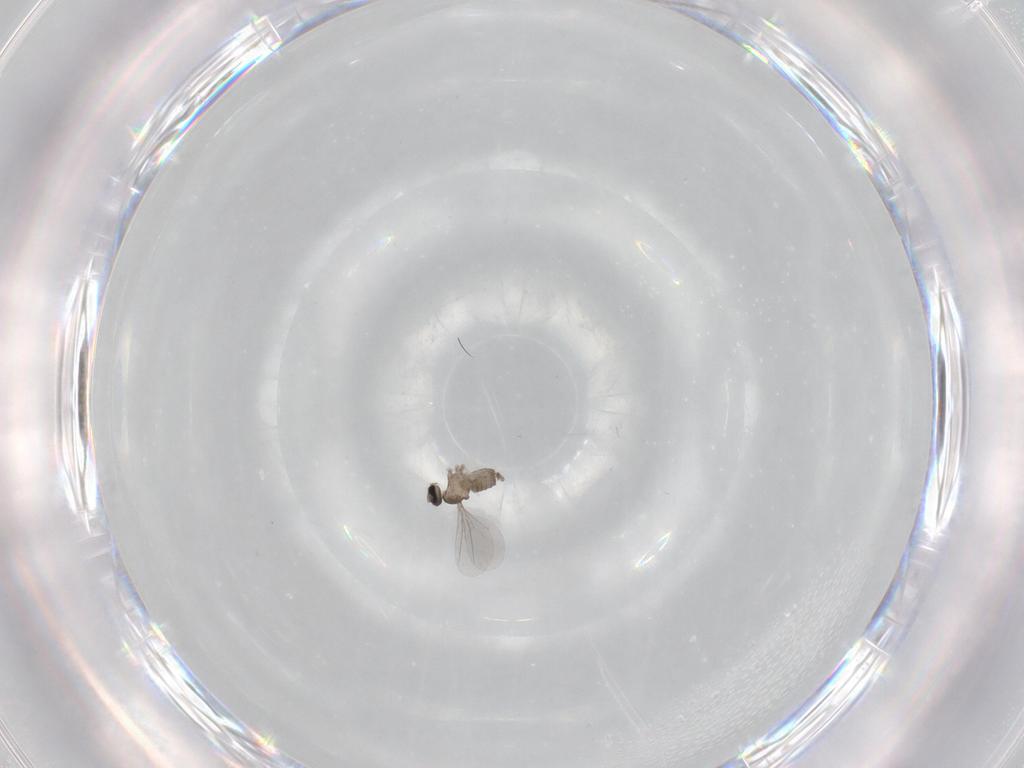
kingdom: Animalia
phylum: Arthropoda
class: Insecta
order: Diptera
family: Cecidomyiidae
